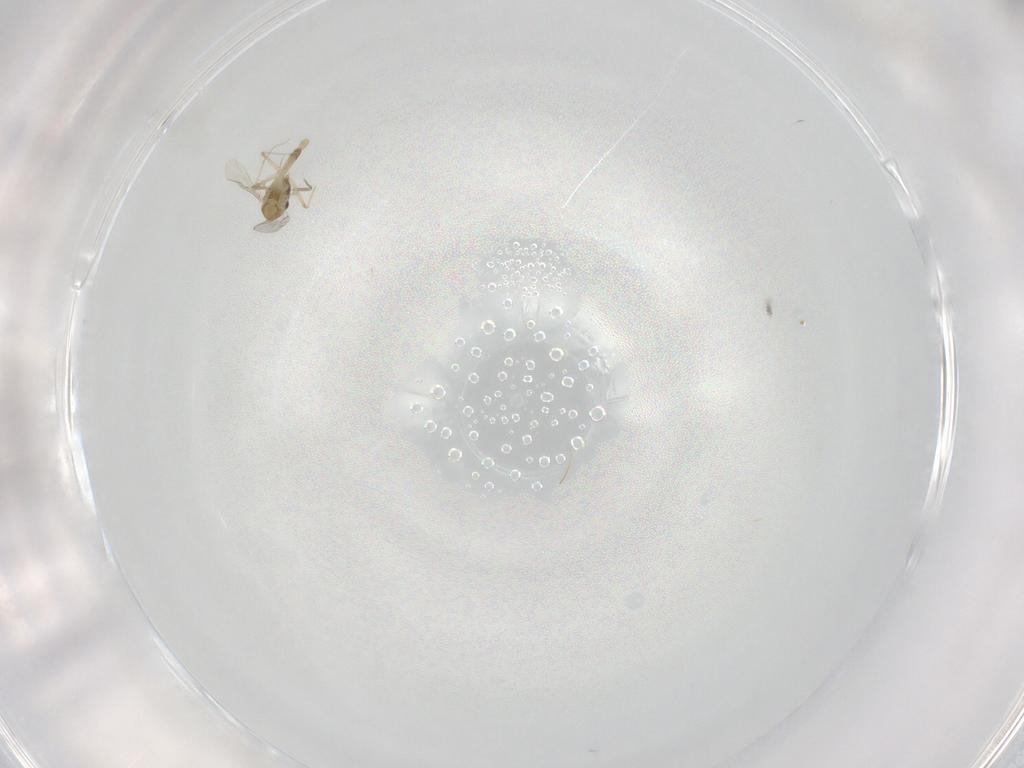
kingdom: Animalia
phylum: Arthropoda
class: Insecta
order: Diptera
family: Mycetophilidae
